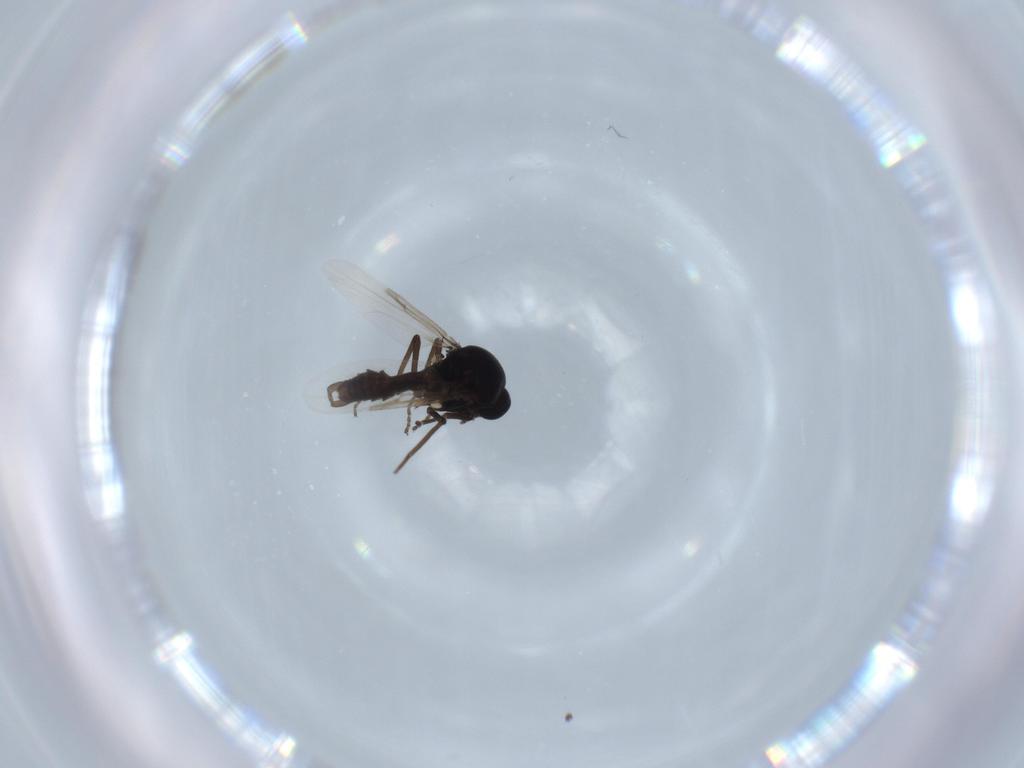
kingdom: Animalia
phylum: Arthropoda
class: Insecta
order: Diptera
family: Ceratopogonidae
